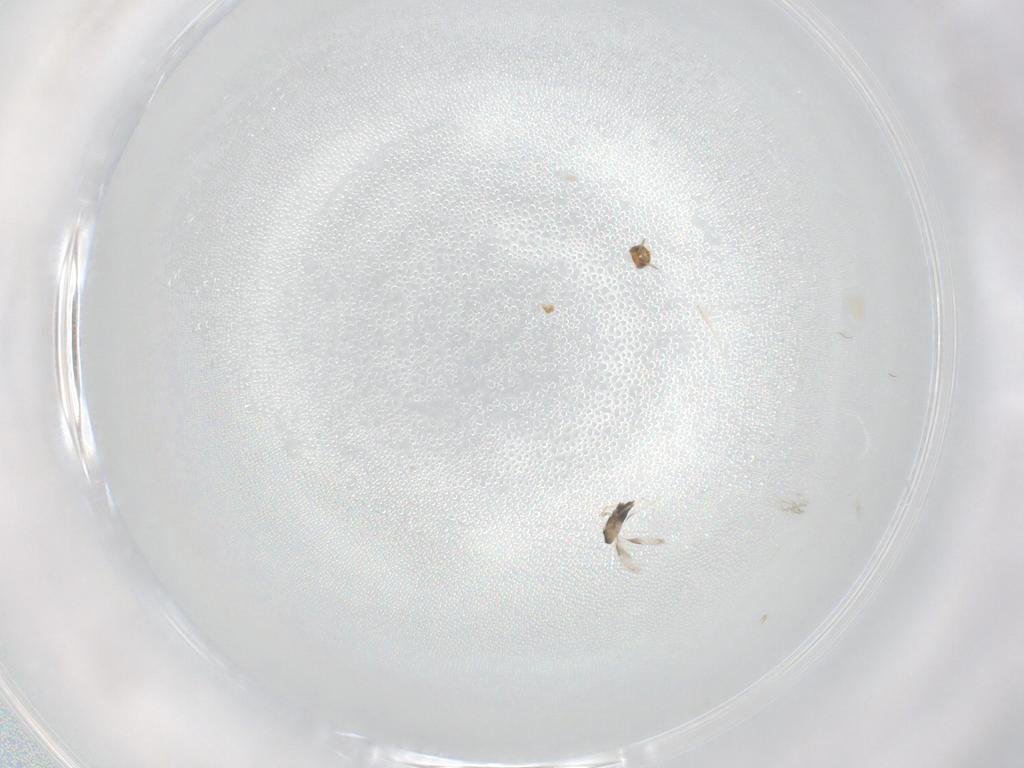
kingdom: Animalia
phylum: Arthropoda
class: Insecta
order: Hymenoptera
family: Aphelinidae
